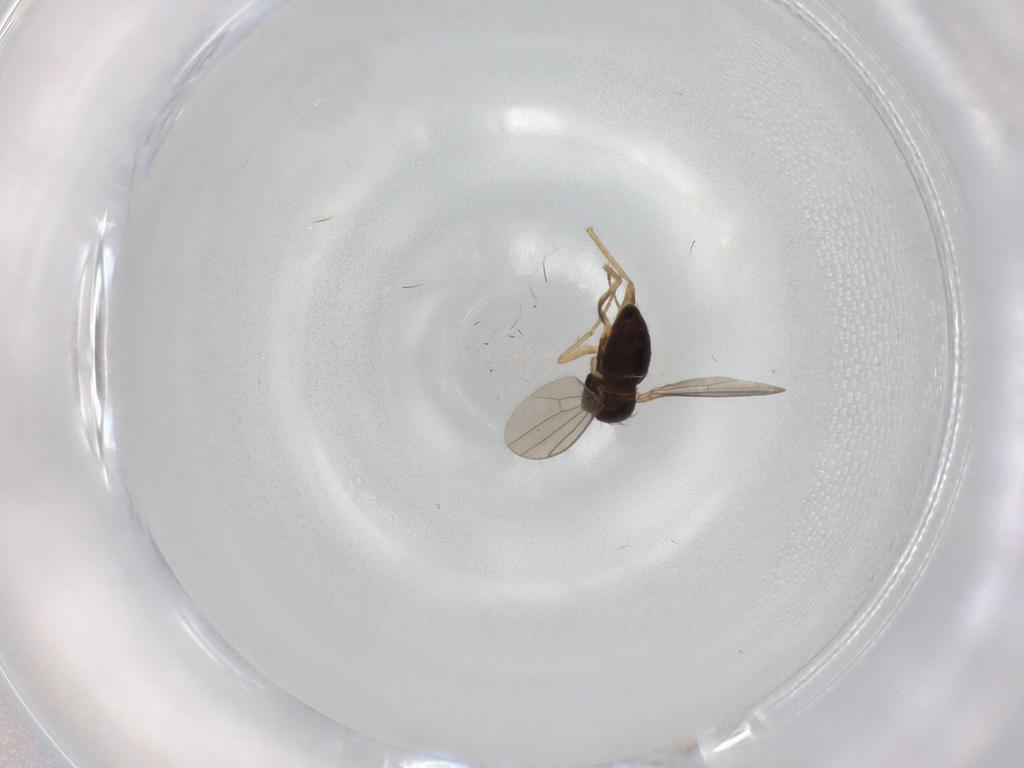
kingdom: Animalia
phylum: Arthropoda
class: Insecta
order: Diptera
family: Dolichopodidae
